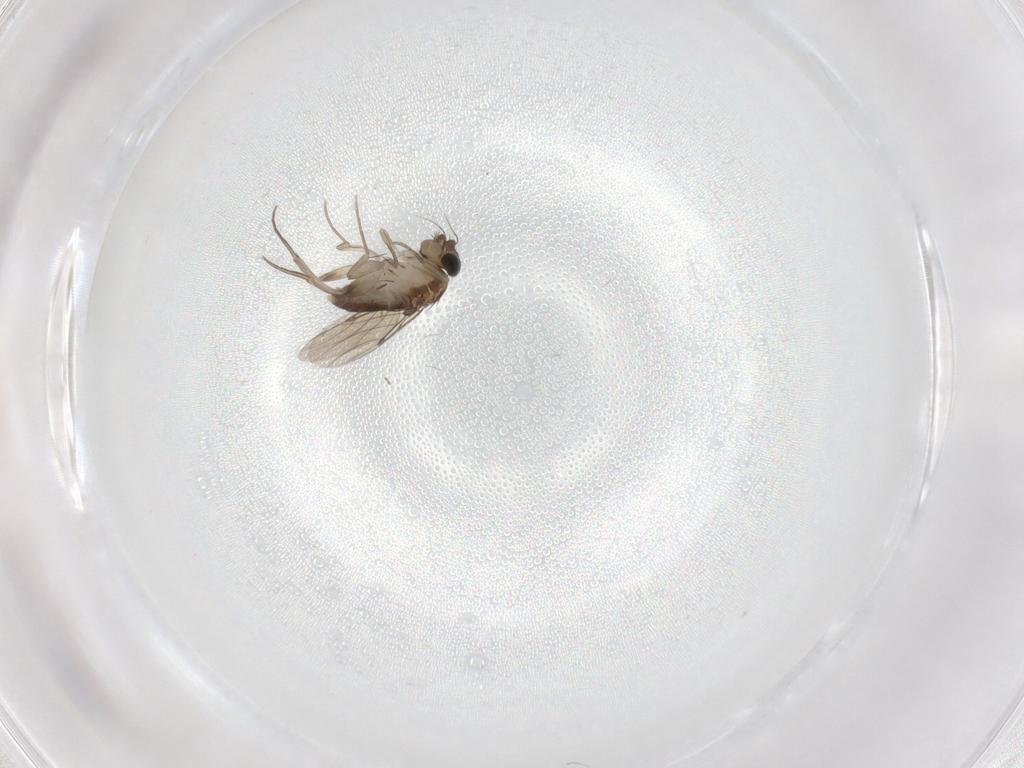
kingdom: Animalia
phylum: Arthropoda
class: Insecta
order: Diptera
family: Phoridae
